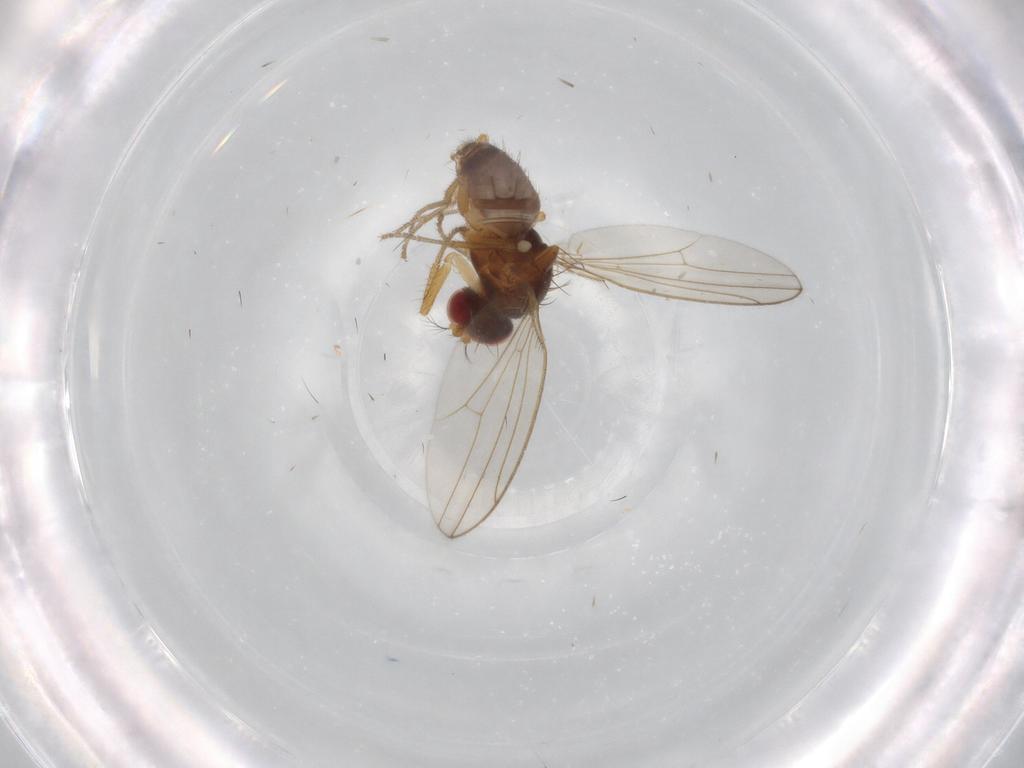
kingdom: Animalia
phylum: Arthropoda
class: Insecta
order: Diptera
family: Drosophilidae
